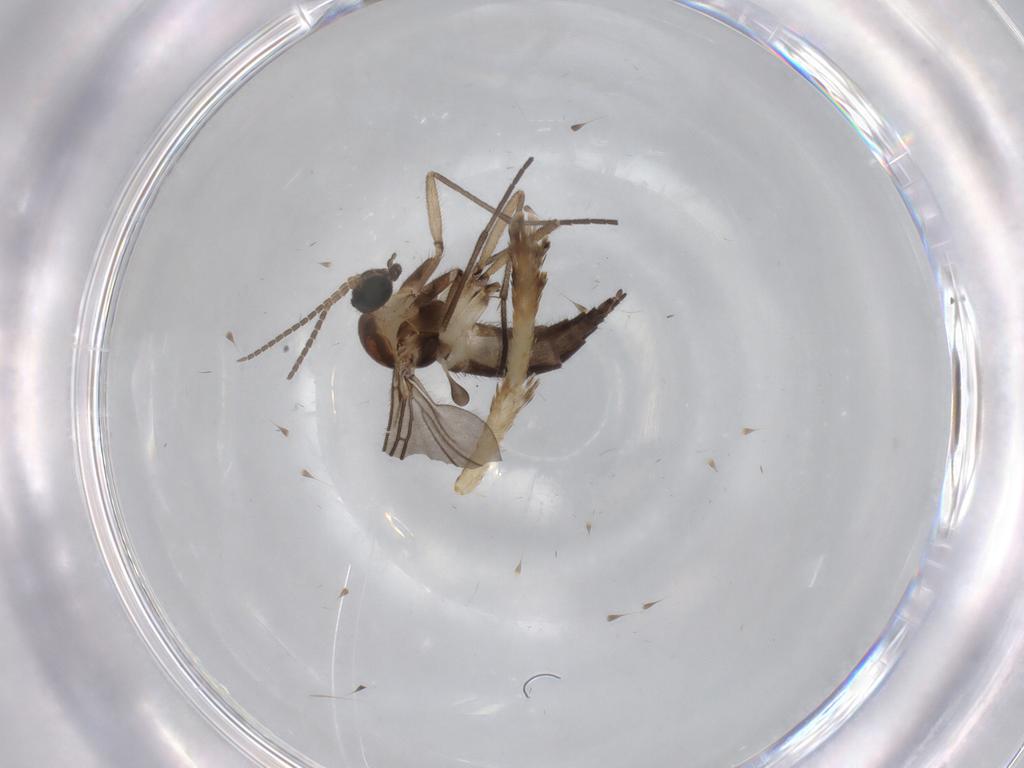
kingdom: Animalia
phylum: Arthropoda
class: Insecta
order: Diptera
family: Sciaridae
